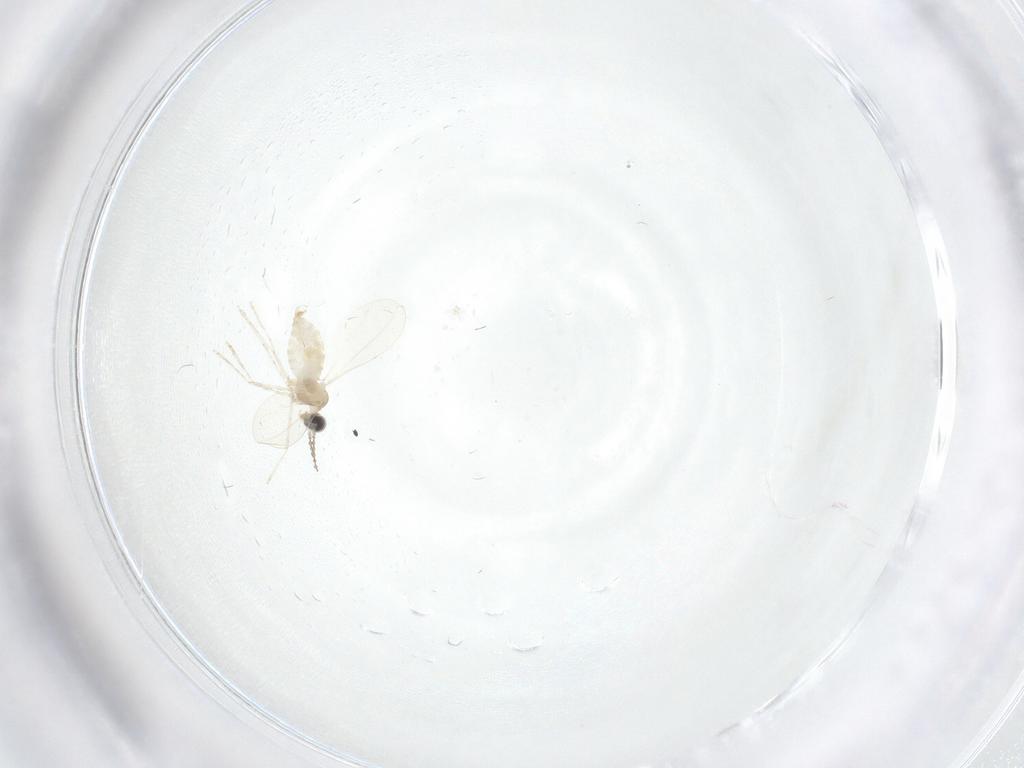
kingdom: Animalia
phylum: Arthropoda
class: Insecta
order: Diptera
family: Cecidomyiidae
